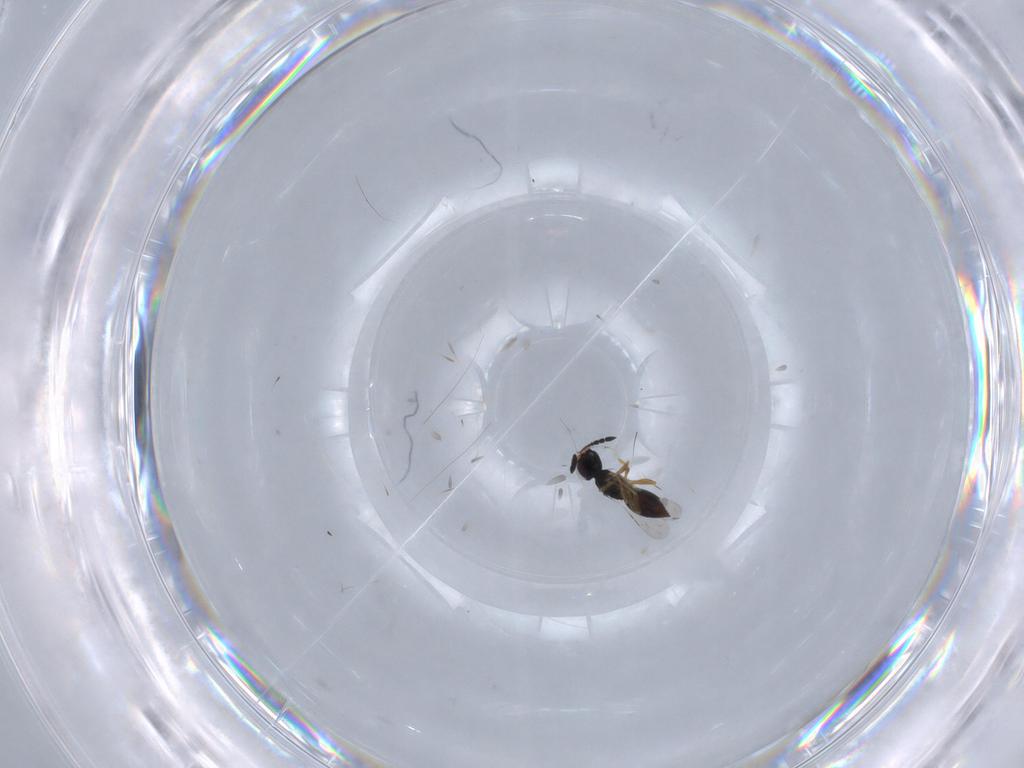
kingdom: Animalia
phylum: Arthropoda
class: Insecta
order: Hymenoptera
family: Ceraphronidae
